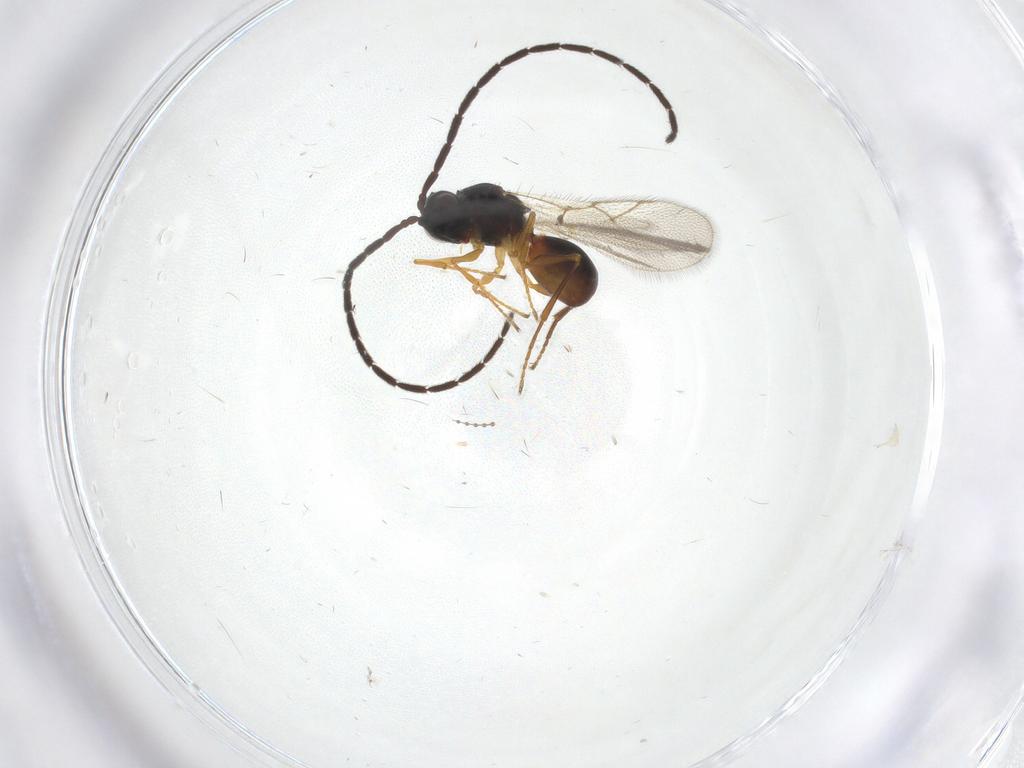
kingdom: Animalia
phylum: Arthropoda
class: Insecta
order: Hymenoptera
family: Figitidae
